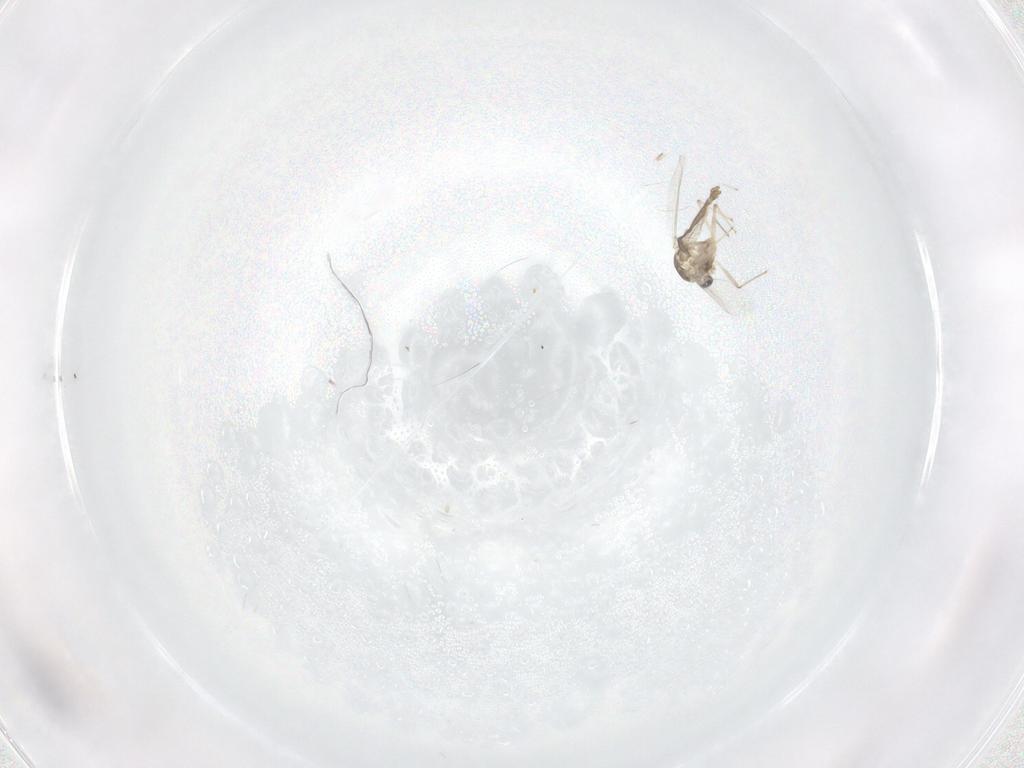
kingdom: Animalia
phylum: Arthropoda
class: Insecta
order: Diptera
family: Chironomidae
